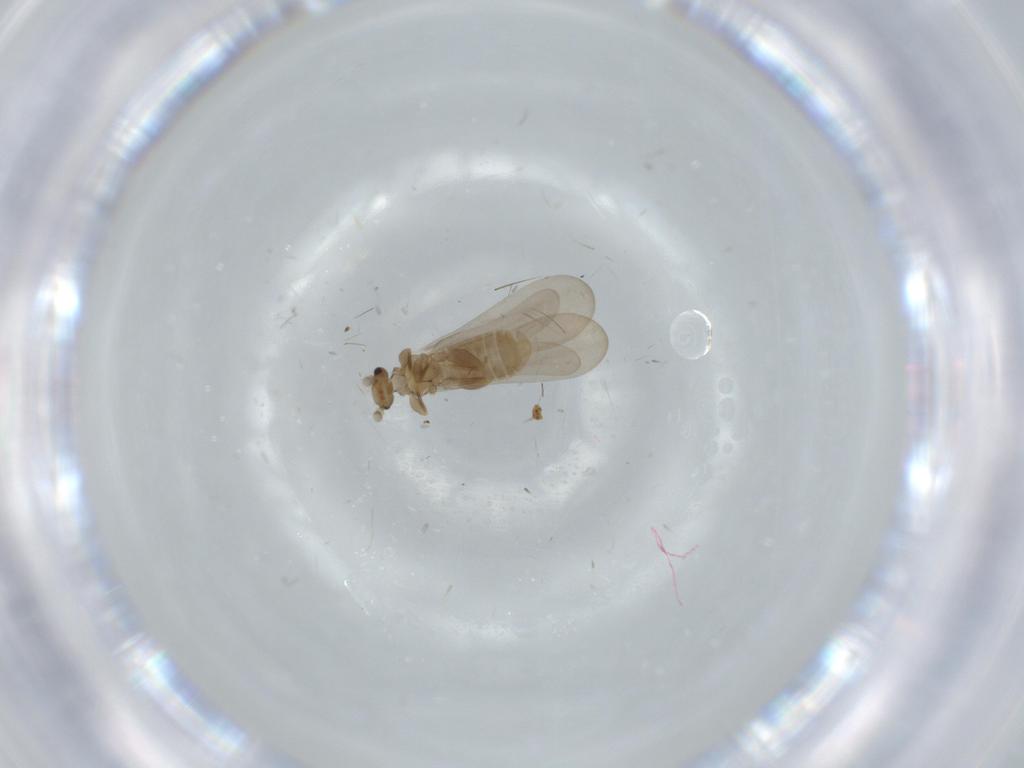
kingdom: Animalia
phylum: Arthropoda
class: Insecta
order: Psocodea
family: Liposcelididae
